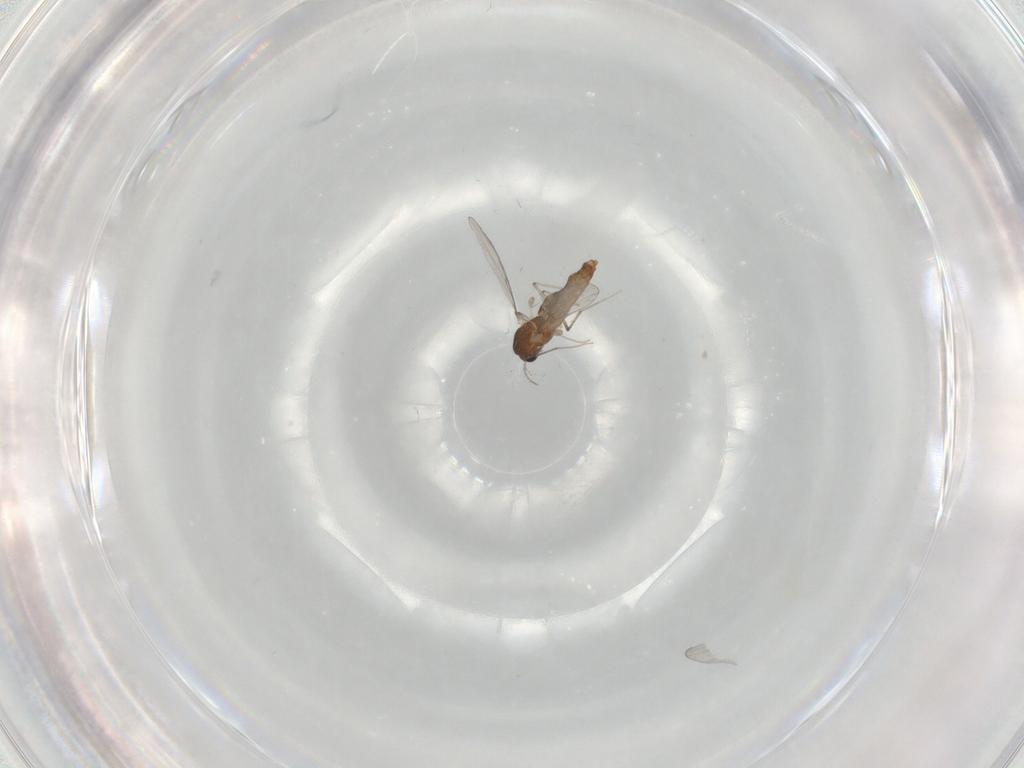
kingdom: Animalia
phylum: Arthropoda
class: Insecta
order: Diptera
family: Chironomidae
